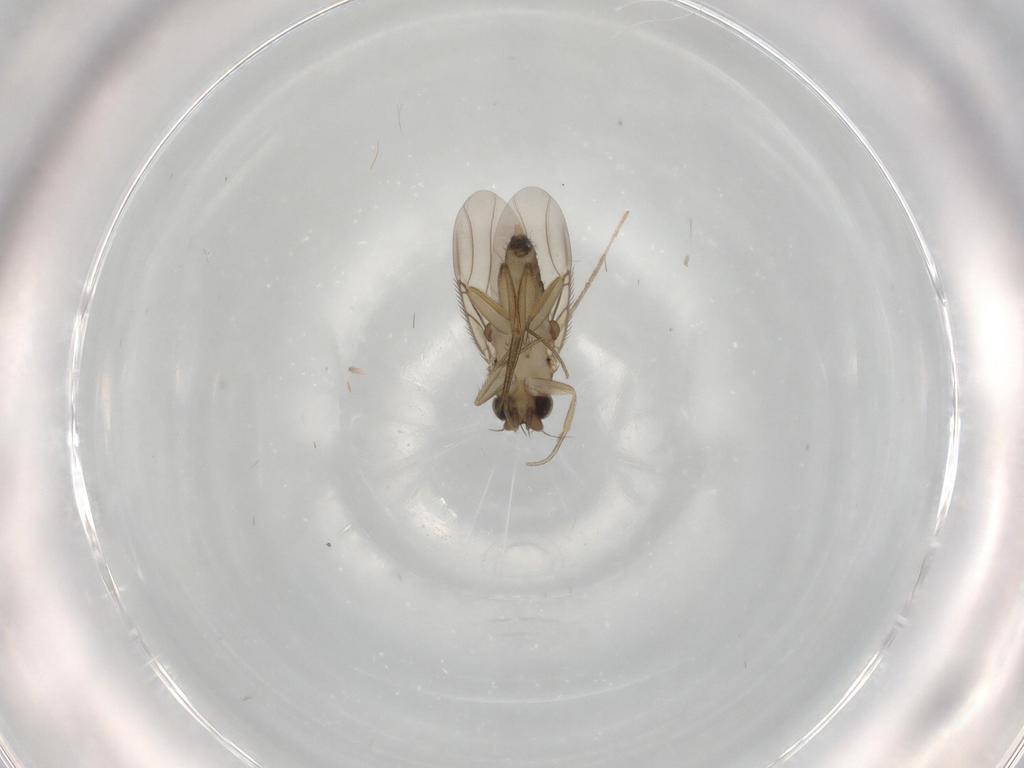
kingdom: Animalia
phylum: Arthropoda
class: Insecta
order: Diptera
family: Phoridae
